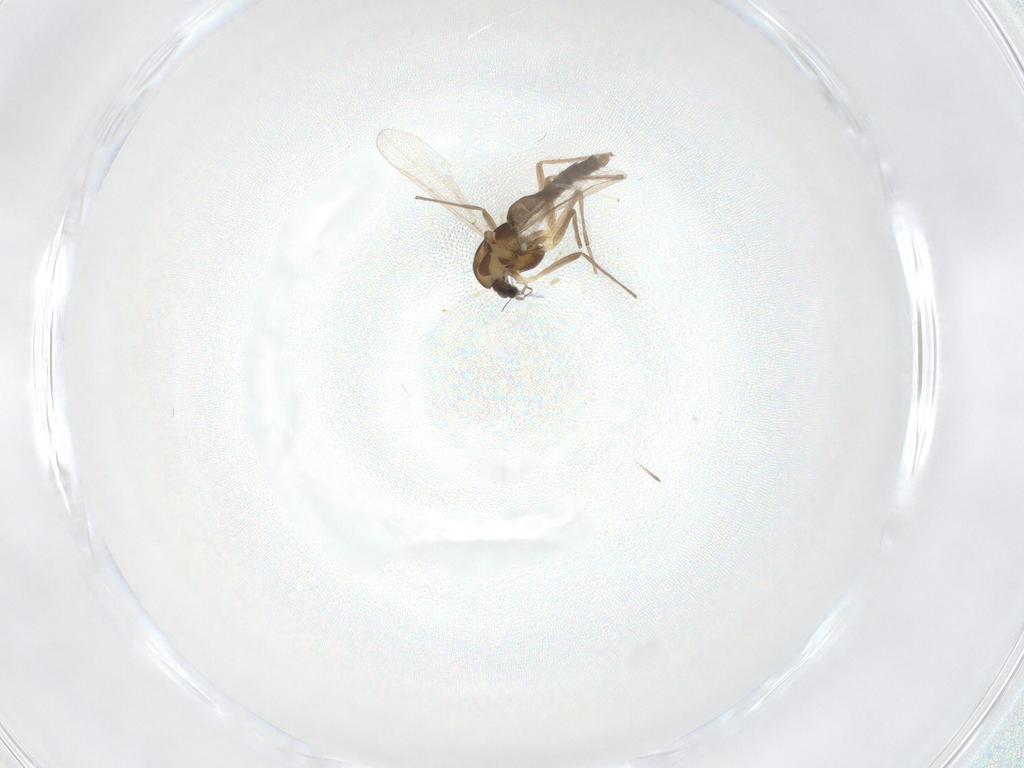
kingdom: Animalia
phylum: Arthropoda
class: Insecta
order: Diptera
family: Chironomidae
